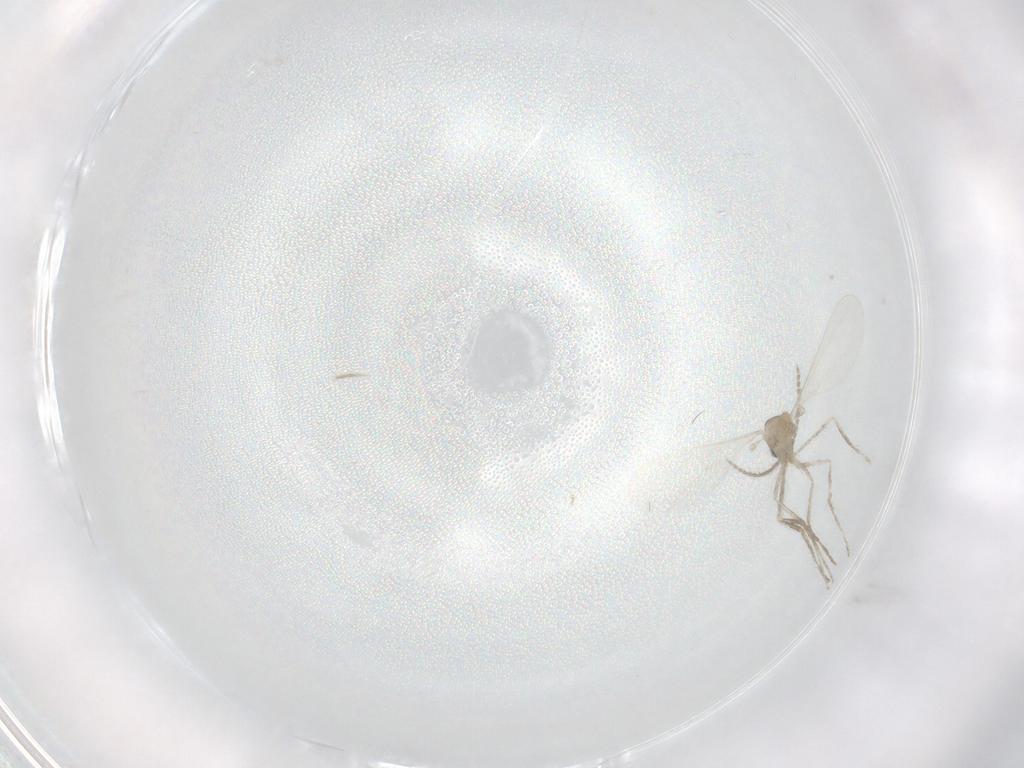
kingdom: Animalia
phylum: Arthropoda
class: Insecta
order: Diptera
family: Cecidomyiidae
